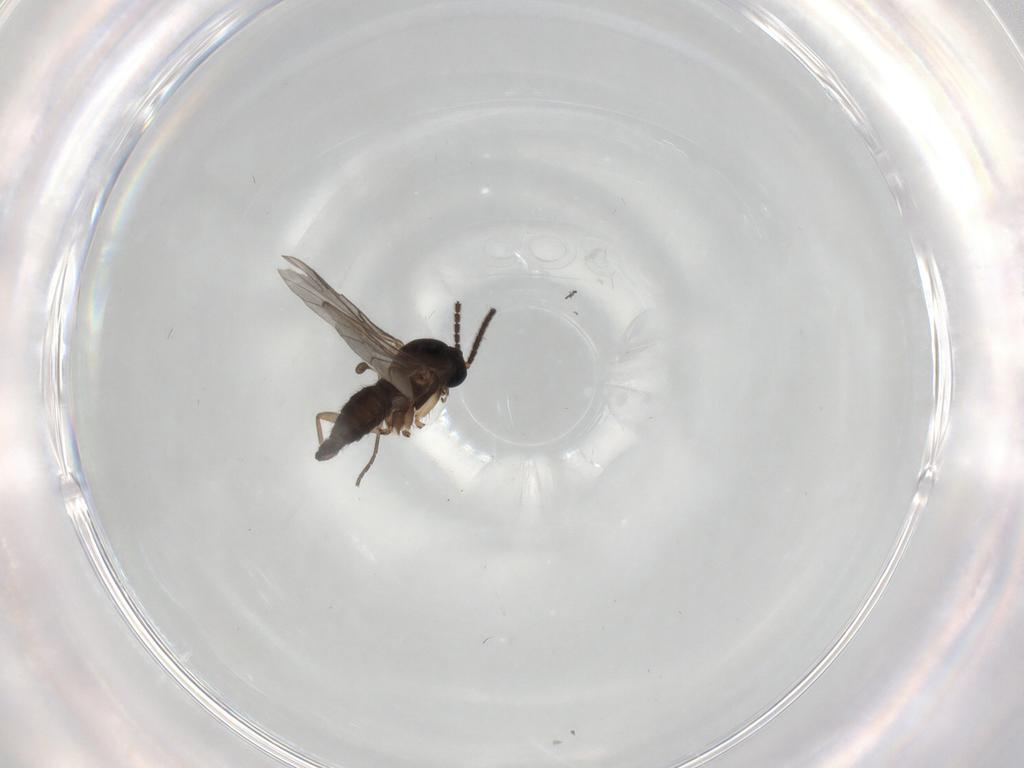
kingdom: Animalia
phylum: Arthropoda
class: Insecta
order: Diptera
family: Sciaridae
